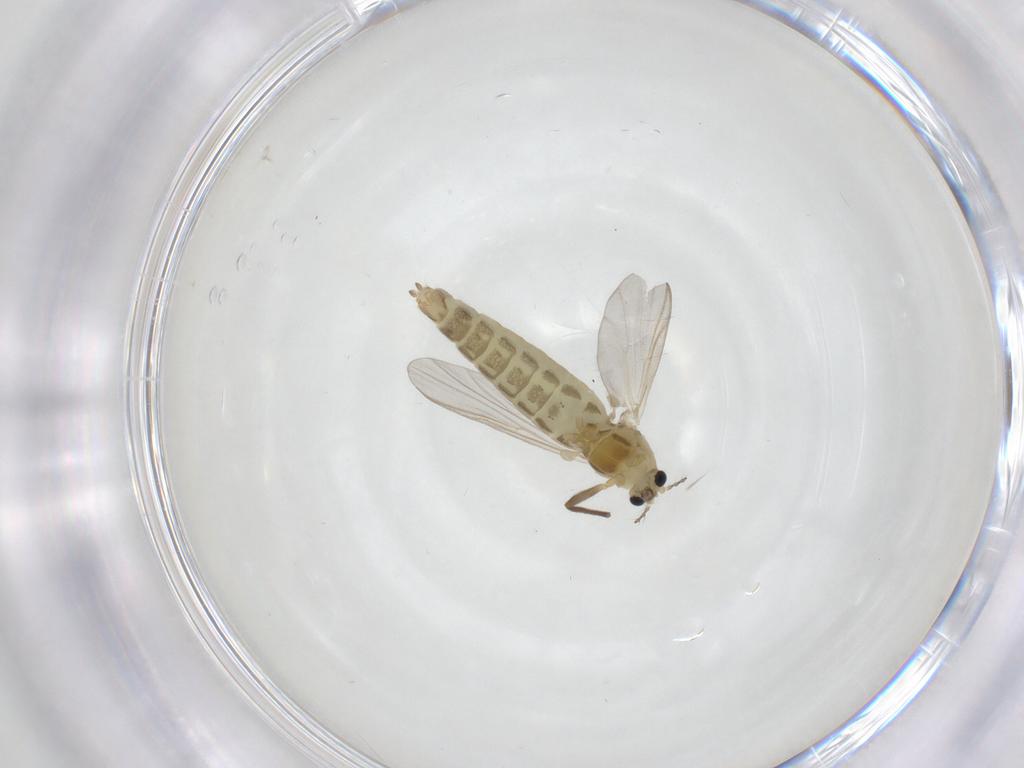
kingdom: Animalia
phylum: Arthropoda
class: Insecta
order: Diptera
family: Chironomidae
